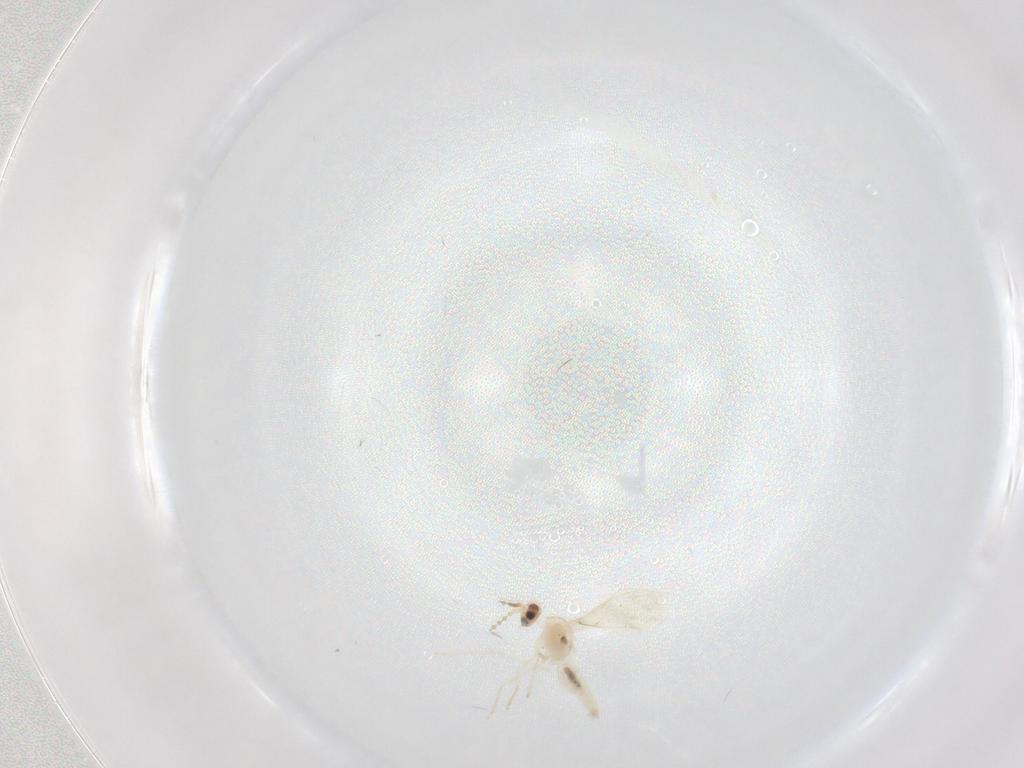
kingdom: Animalia
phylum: Arthropoda
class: Insecta
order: Diptera
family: Cecidomyiidae
